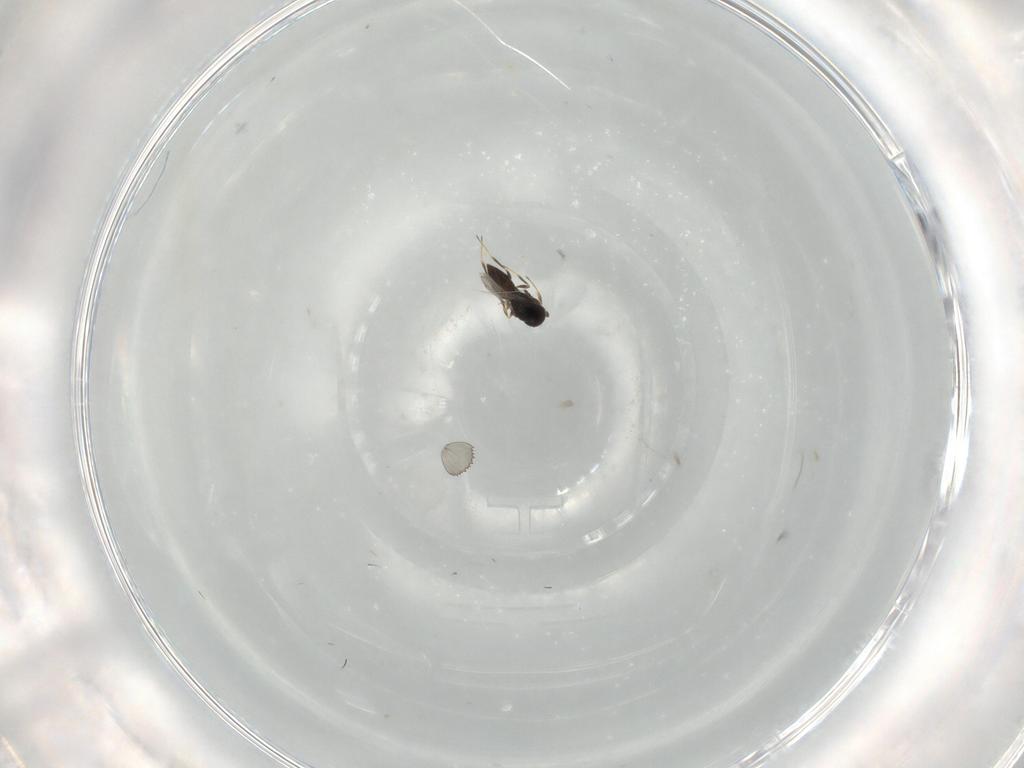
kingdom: Animalia
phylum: Arthropoda
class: Insecta
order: Hymenoptera
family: Scelionidae
